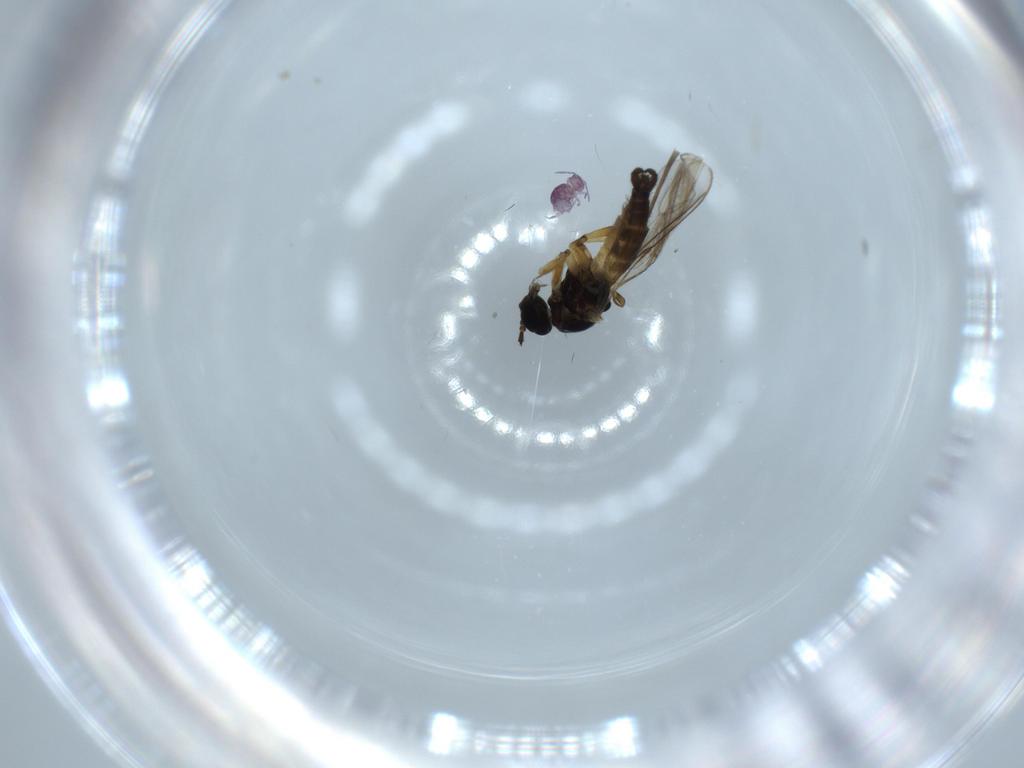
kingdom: Animalia
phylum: Arthropoda
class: Insecta
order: Diptera
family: Sciaridae
